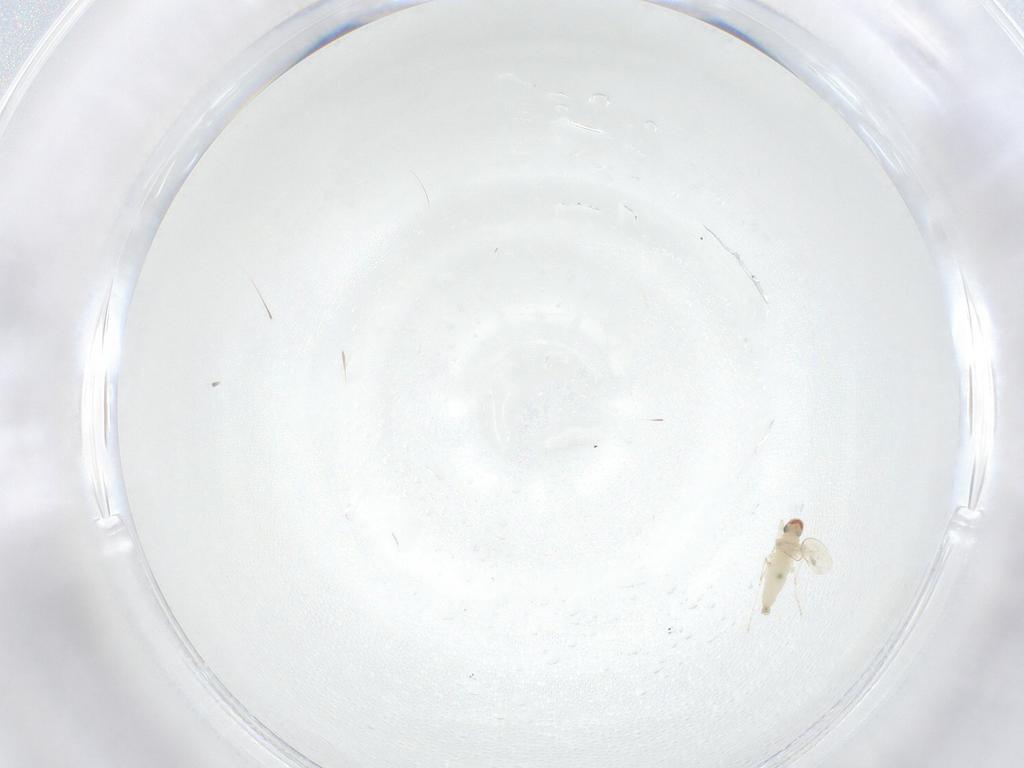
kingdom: Animalia
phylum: Arthropoda
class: Insecta
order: Diptera
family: Cecidomyiidae
